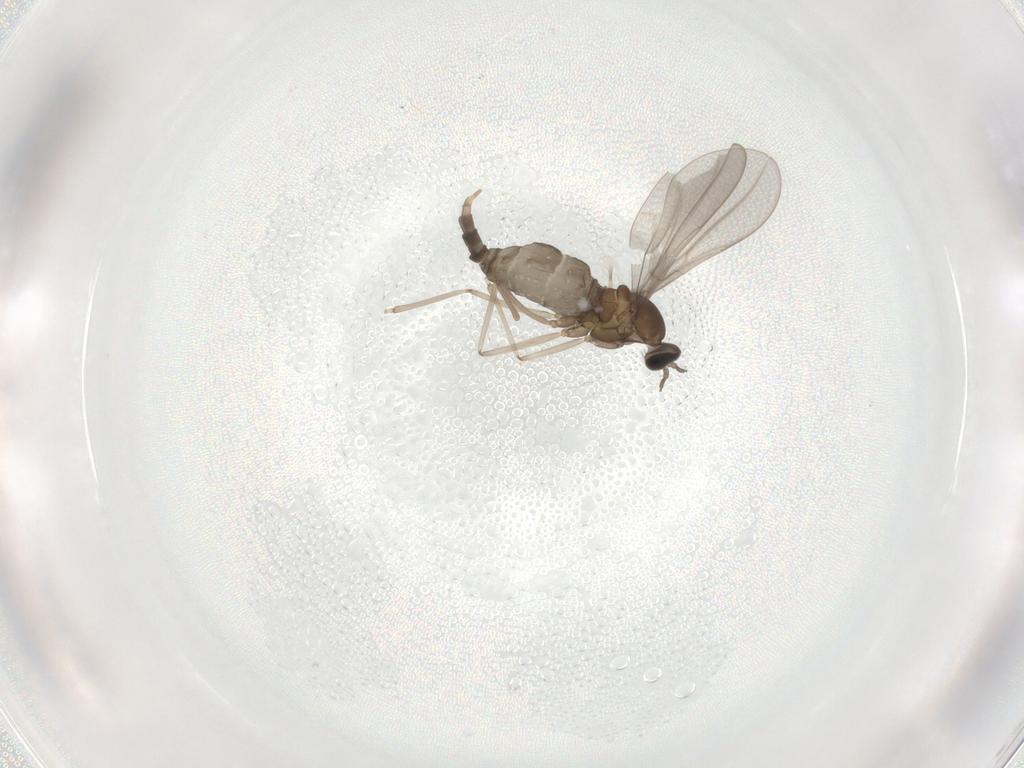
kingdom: Animalia
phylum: Arthropoda
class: Insecta
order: Diptera
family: Cecidomyiidae
